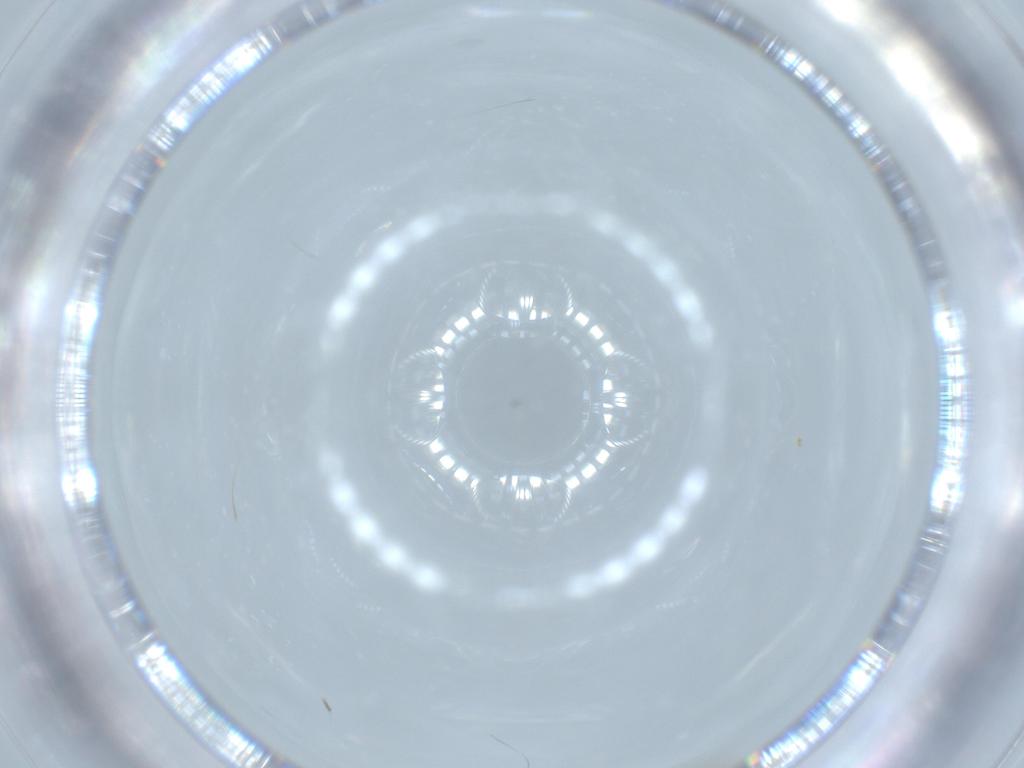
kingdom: Animalia
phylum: Arthropoda
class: Insecta
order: Diptera
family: Cecidomyiidae
